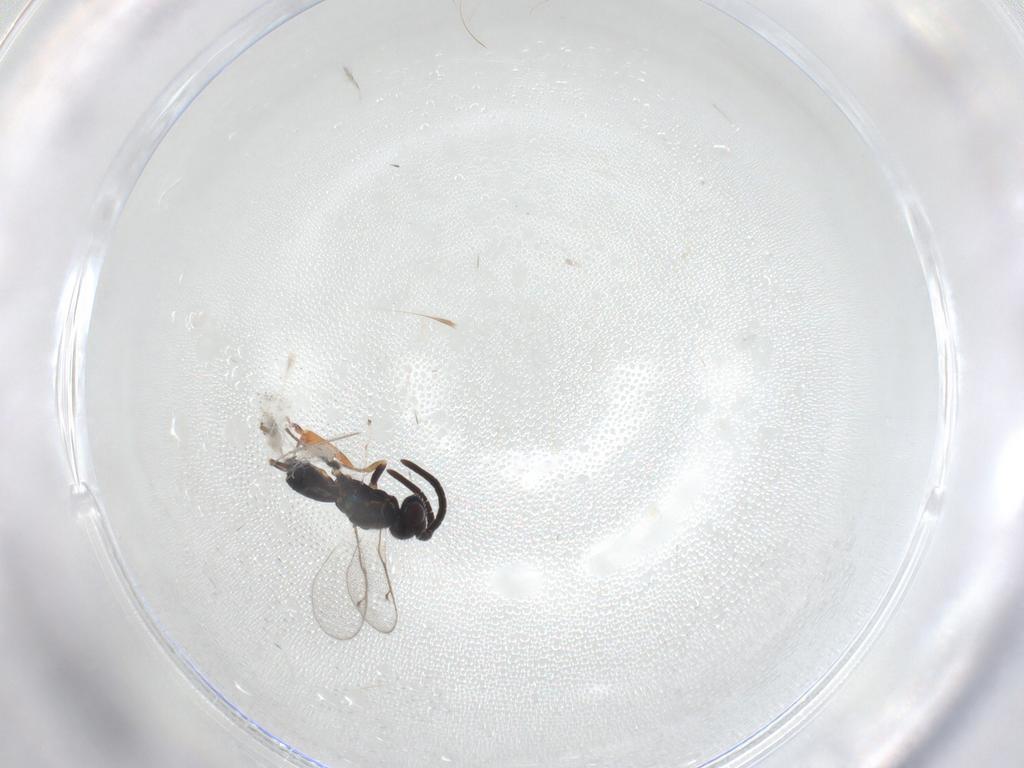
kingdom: Animalia
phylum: Arthropoda
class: Insecta
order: Hymenoptera
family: Eupelmidae
